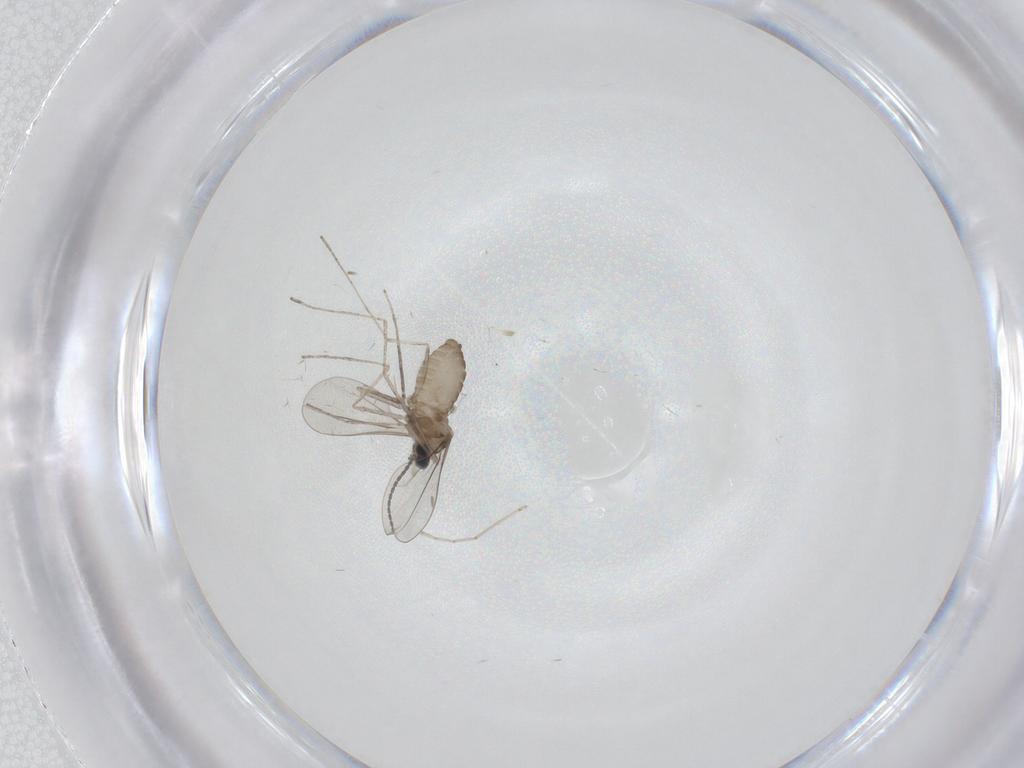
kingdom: Animalia
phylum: Arthropoda
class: Insecta
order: Diptera
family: Cecidomyiidae
